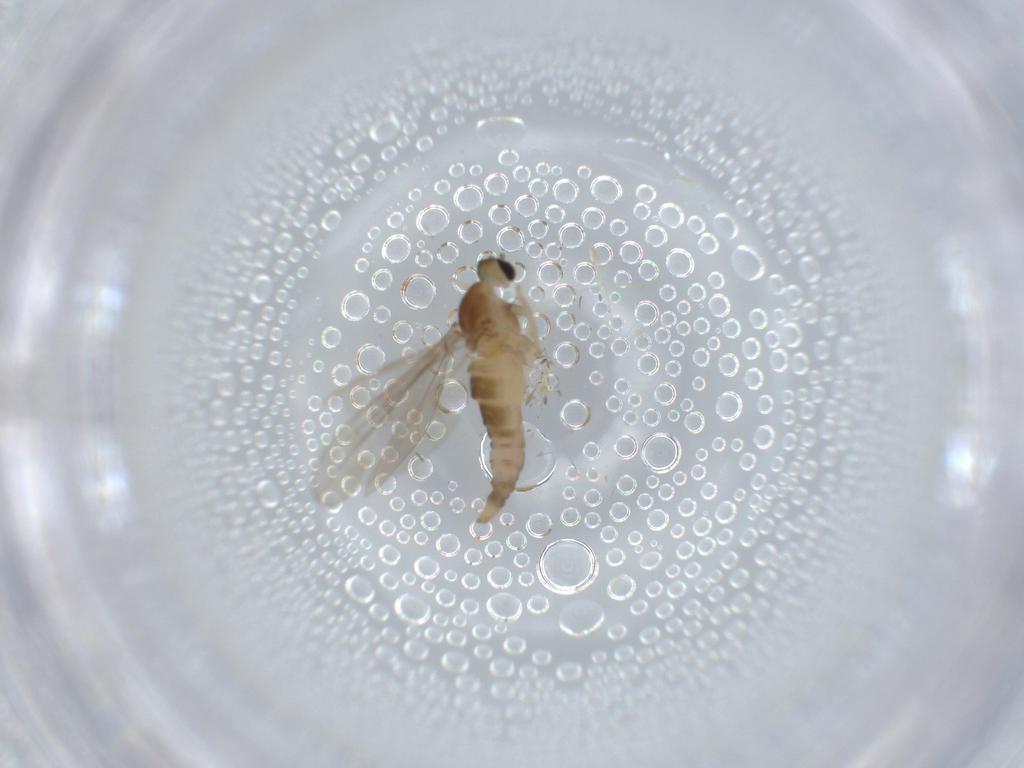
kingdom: Animalia
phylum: Arthropoda
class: Insecta
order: Diptera
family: Cecidomyiidae
